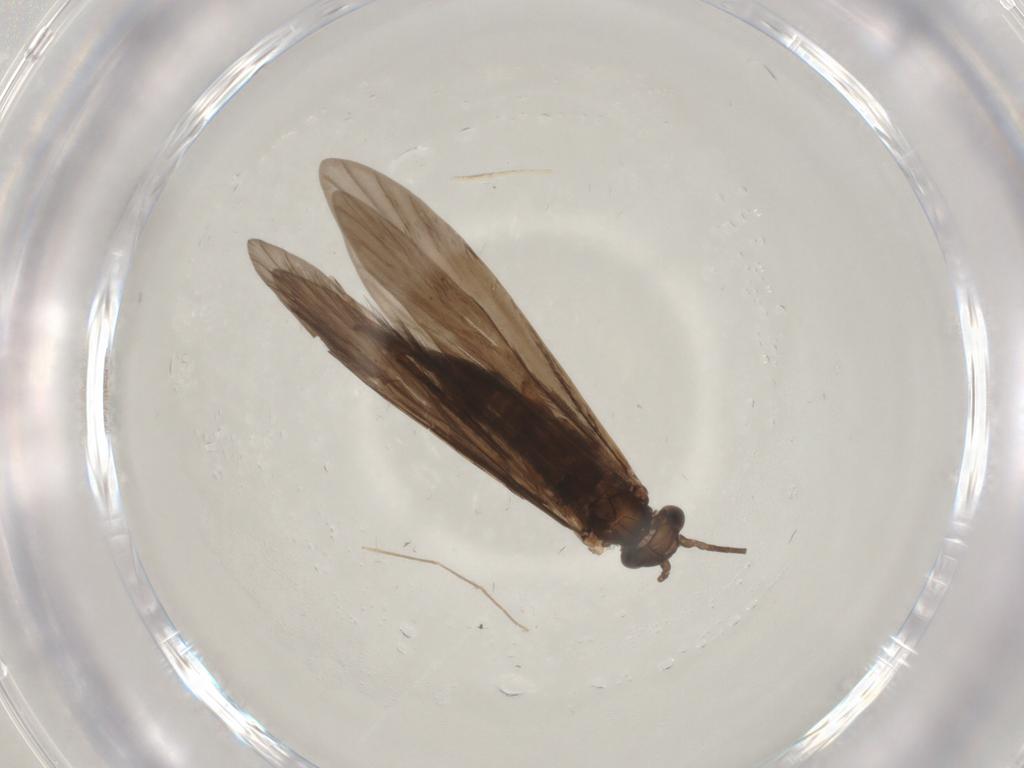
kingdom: Animalia
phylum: Arthropoda
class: Insecta
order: Trichoptera
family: Xiphocentronidae
